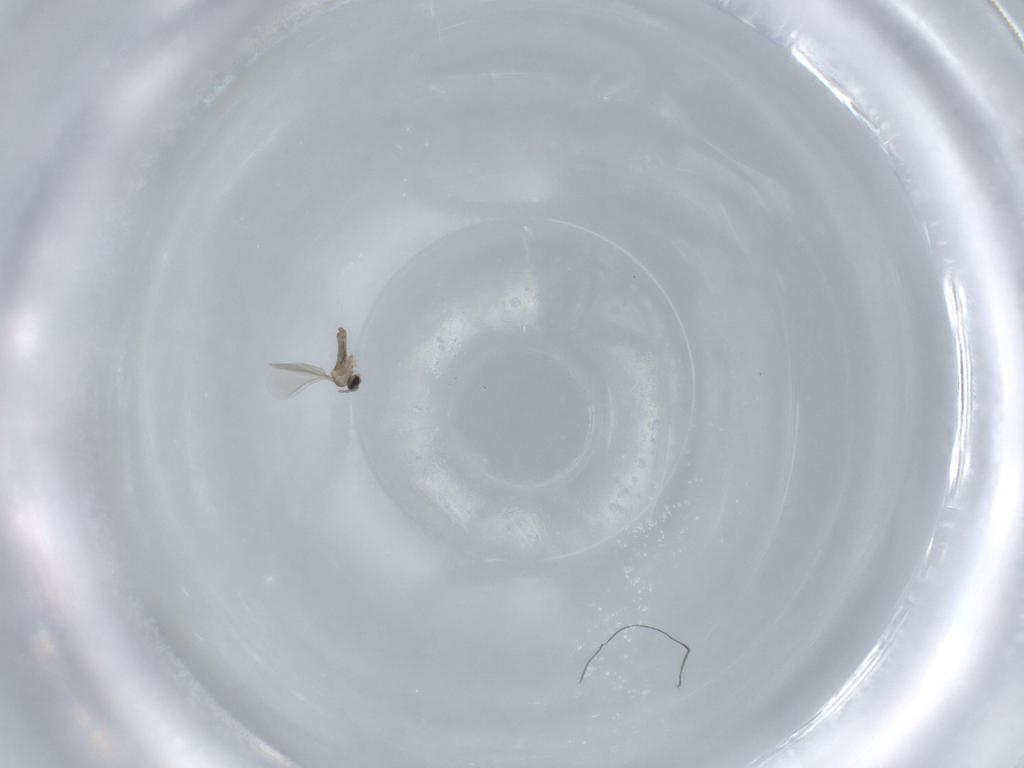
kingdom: Animalia
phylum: Arthropoda
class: Insecta
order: Diptera
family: Cecidomyiidae
